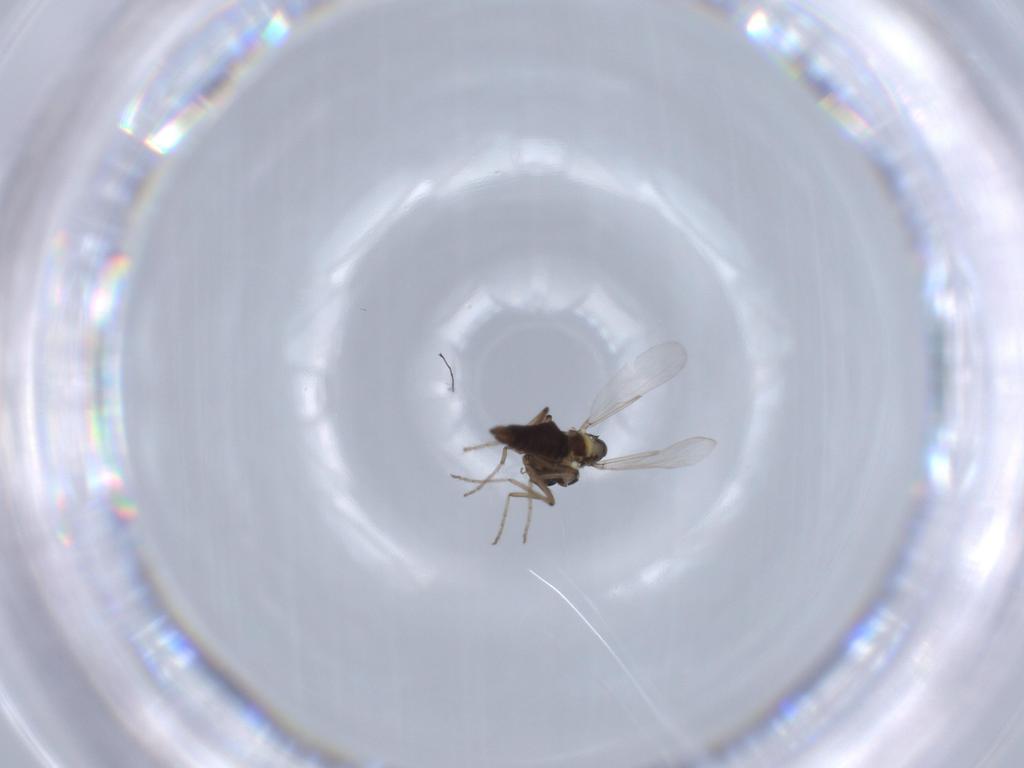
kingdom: Animalia
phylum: Arthropoda
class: Insecta
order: Diptera
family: Ceratopogonidae
